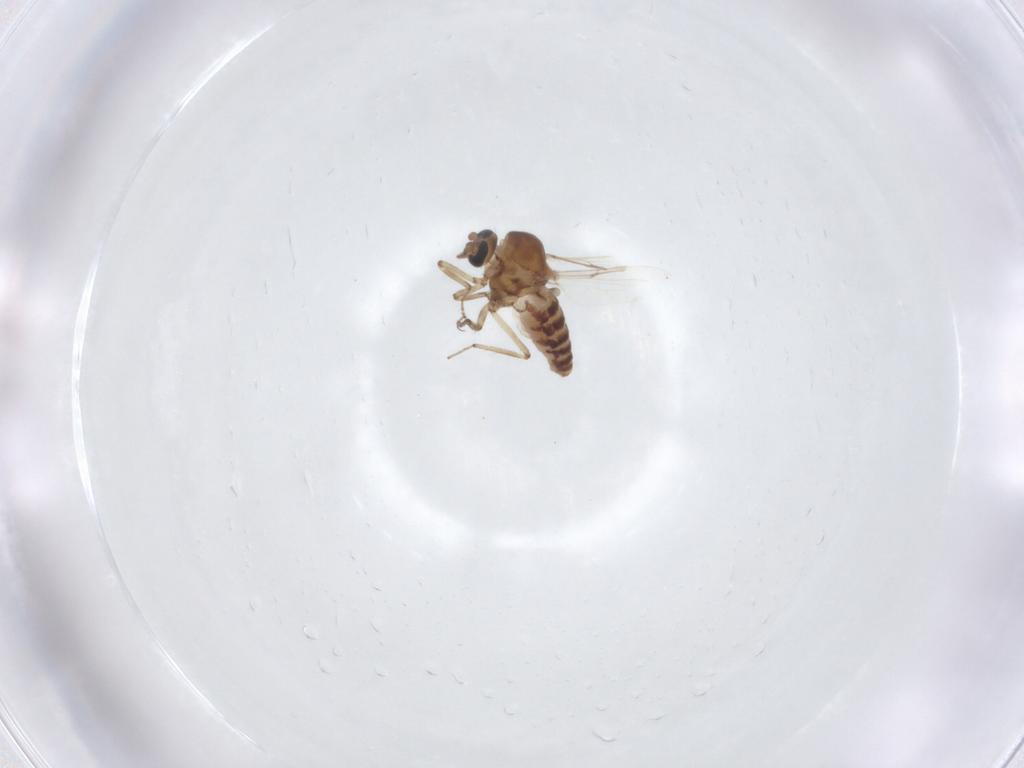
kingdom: Animalia
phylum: Arthropoda
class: Insecta
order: Diptera
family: Ceratopogonidae
